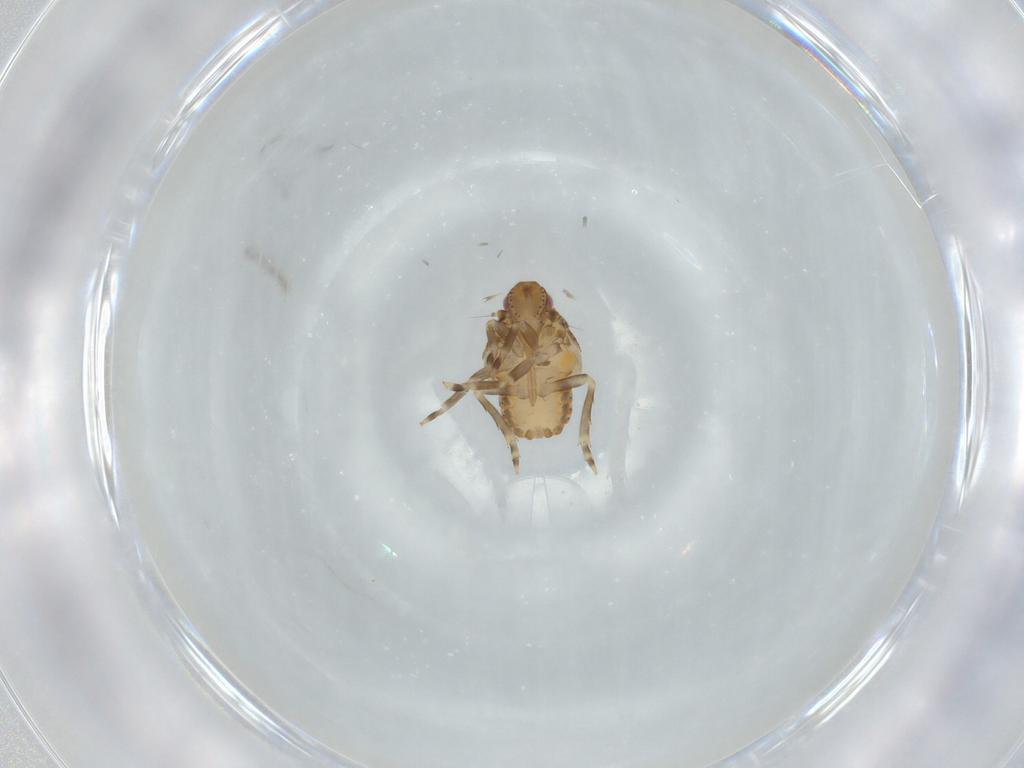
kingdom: Animalia
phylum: Arthropoda
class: Insecta
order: Hemiptera
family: Flatidae
